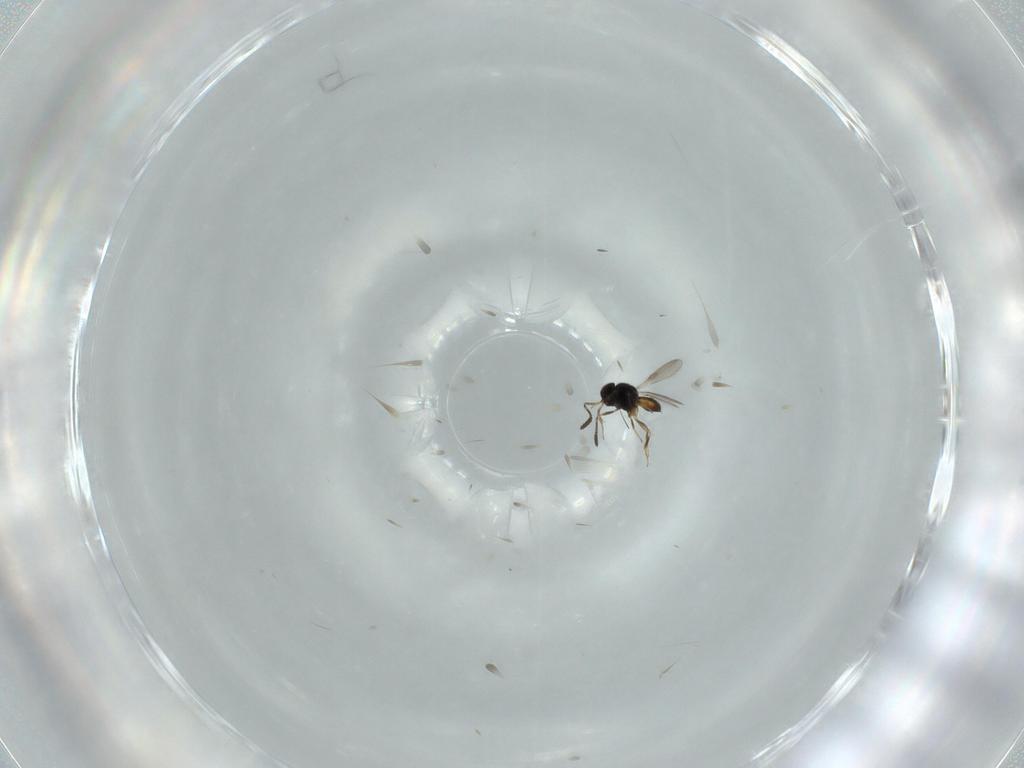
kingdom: Animalia
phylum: Arthropoda
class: Insecta
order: Hymenoptera
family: Scelionidae
